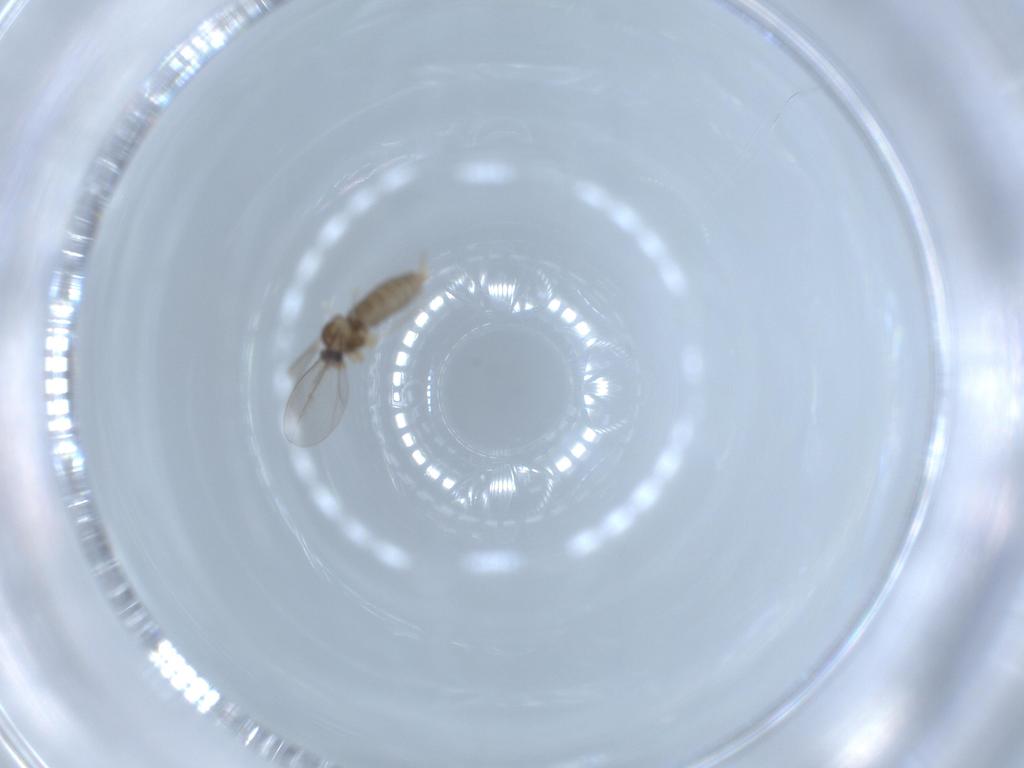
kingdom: Animalia
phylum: Arthropoda
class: Insecta
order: Diptera
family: Cecidomyiidae
